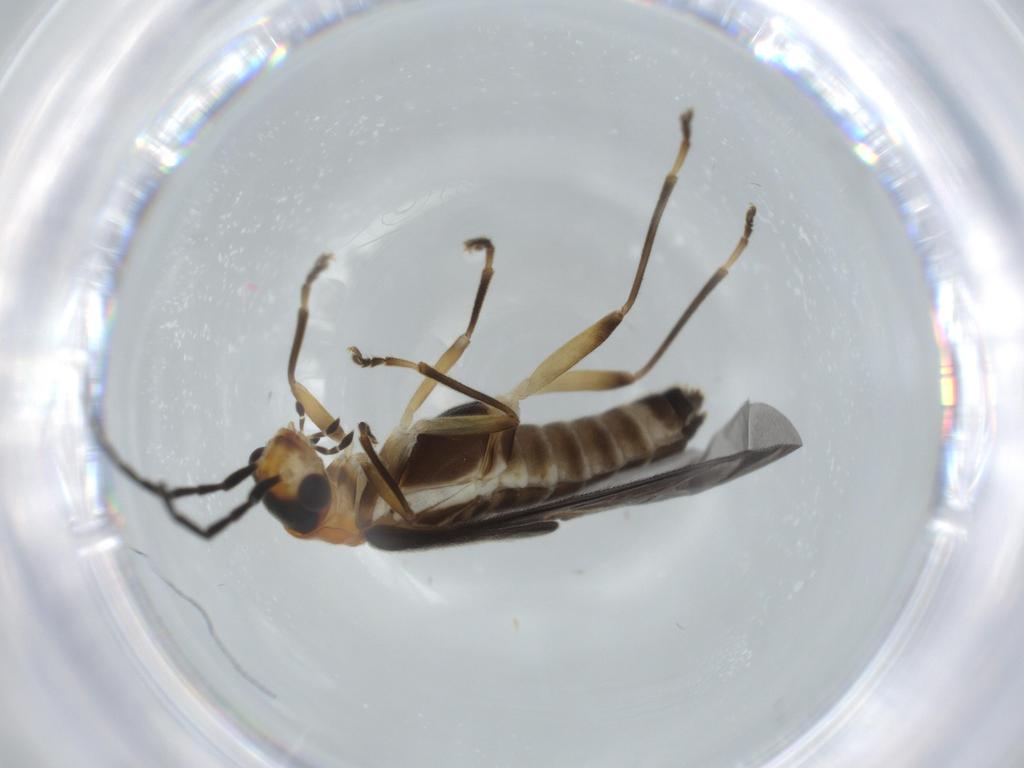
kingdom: Animalia
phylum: Arthropoda
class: Insecta
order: Coleoptera
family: Cantharidae
